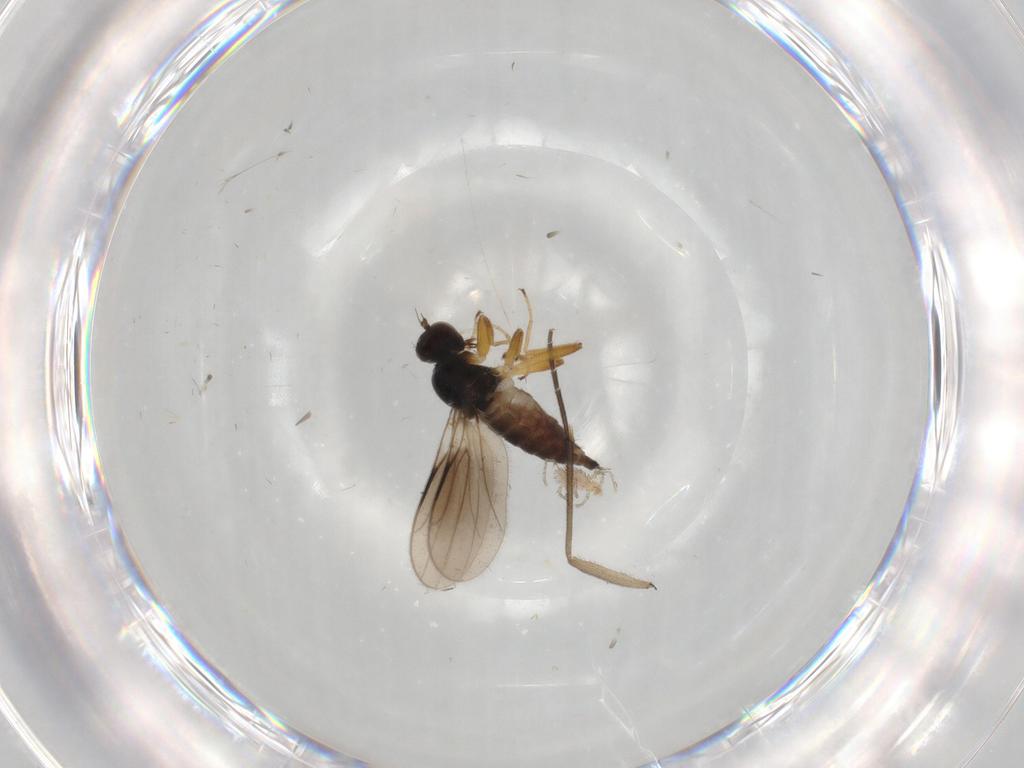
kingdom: Animalia
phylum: Arthropoda
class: Insecta
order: Diptera
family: Hybotidae
